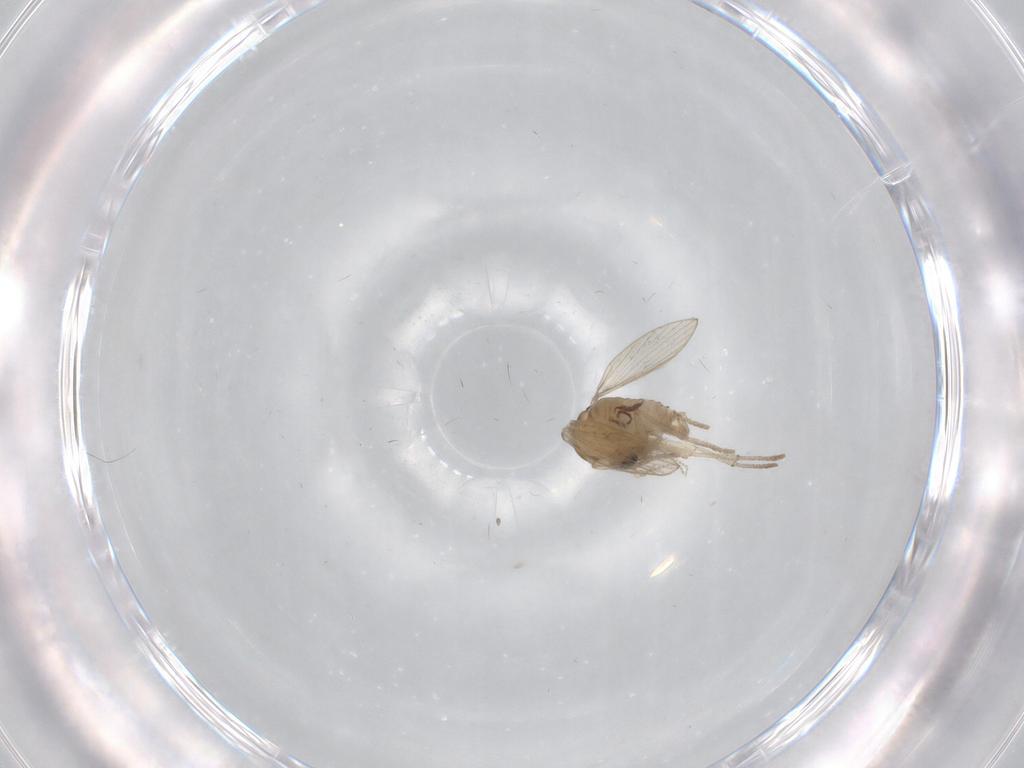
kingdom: Animalia
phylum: Arthropoda
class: Insecta
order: Diptera
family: Psychodidae
